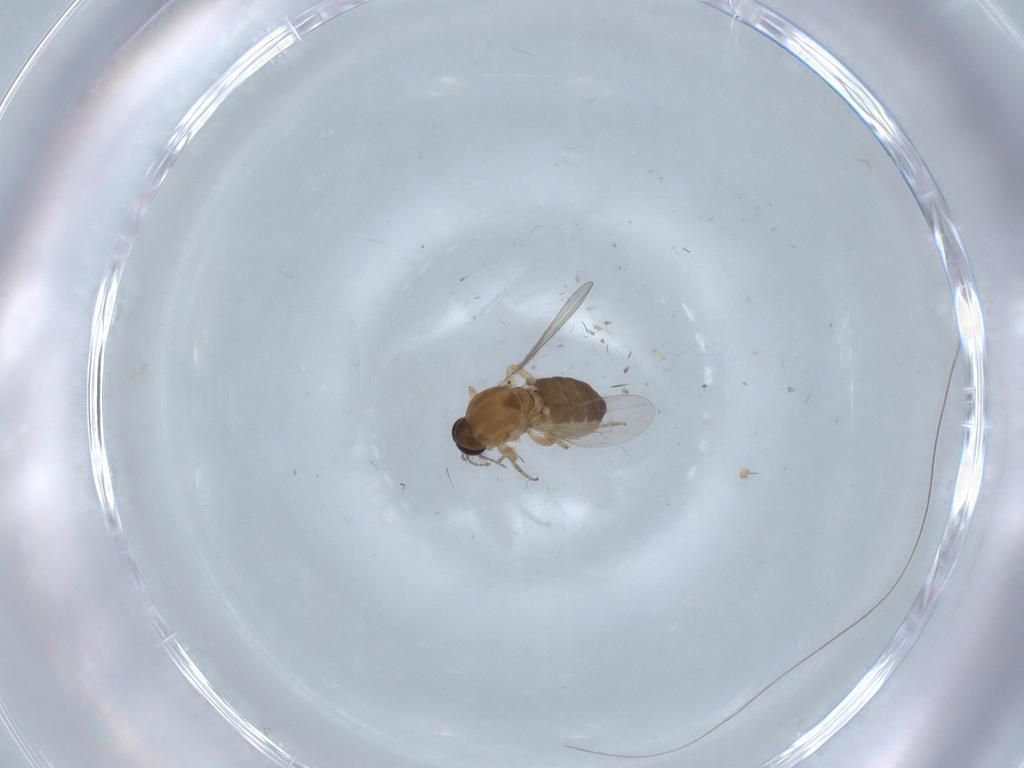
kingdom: Animalia
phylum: Arthropoda
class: Insecta
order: Diptera
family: Ceratopogonidae
